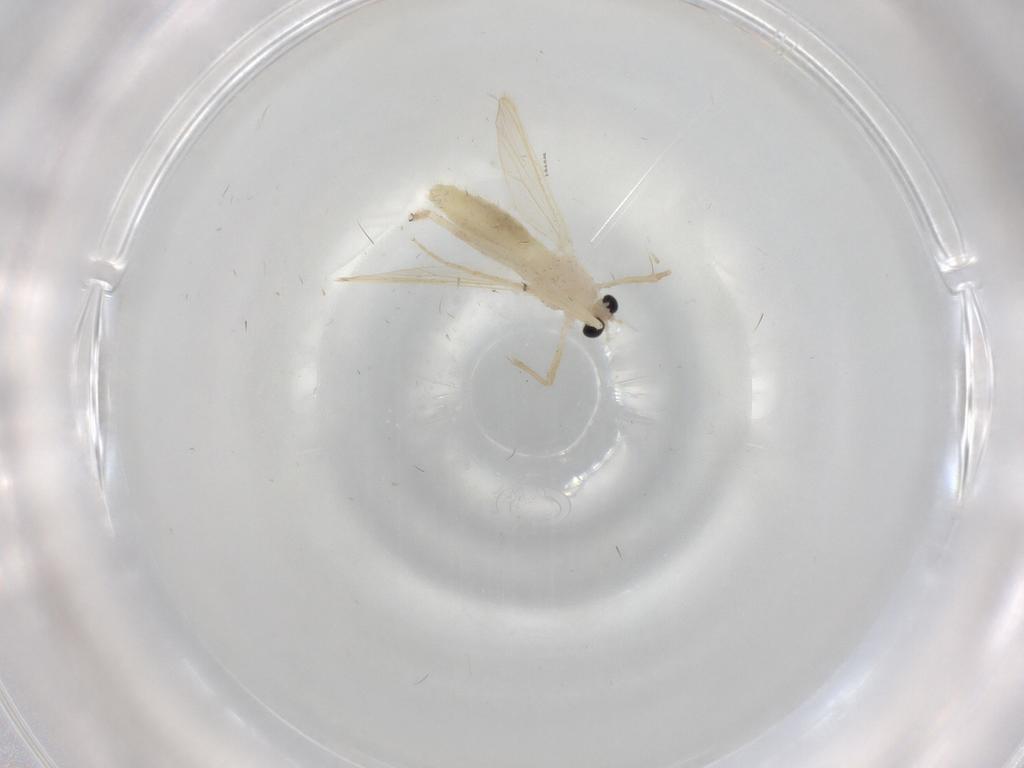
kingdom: Animalia
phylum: Arthropoda
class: Insecta
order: Diptera
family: Chironomidae
